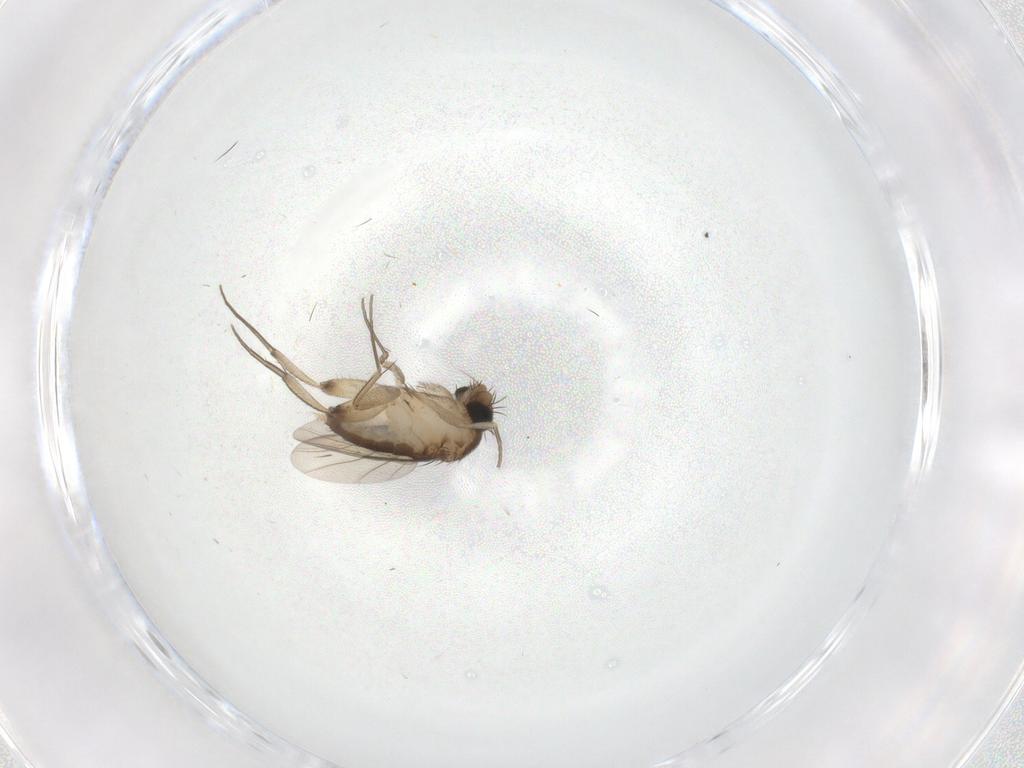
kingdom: Animalia
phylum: Arthropoda
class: Insecta
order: Diptera
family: Phoridae
